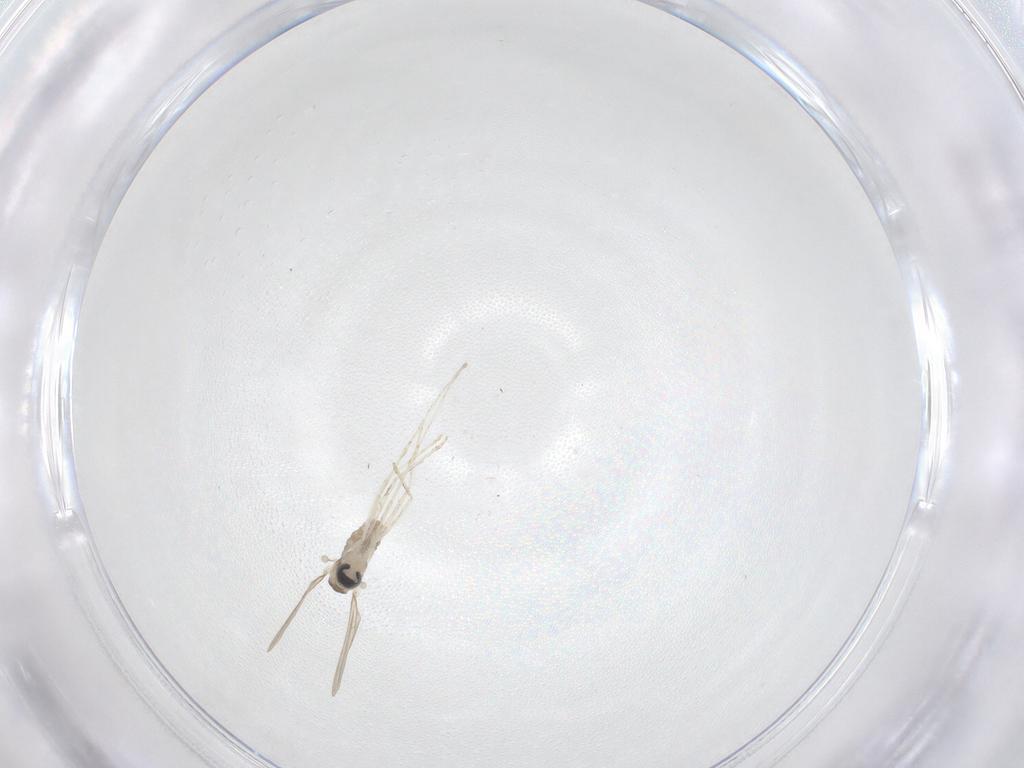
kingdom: Animalia
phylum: Arthropoda
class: Insecta
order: Diptera
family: Cecidomyiidae
